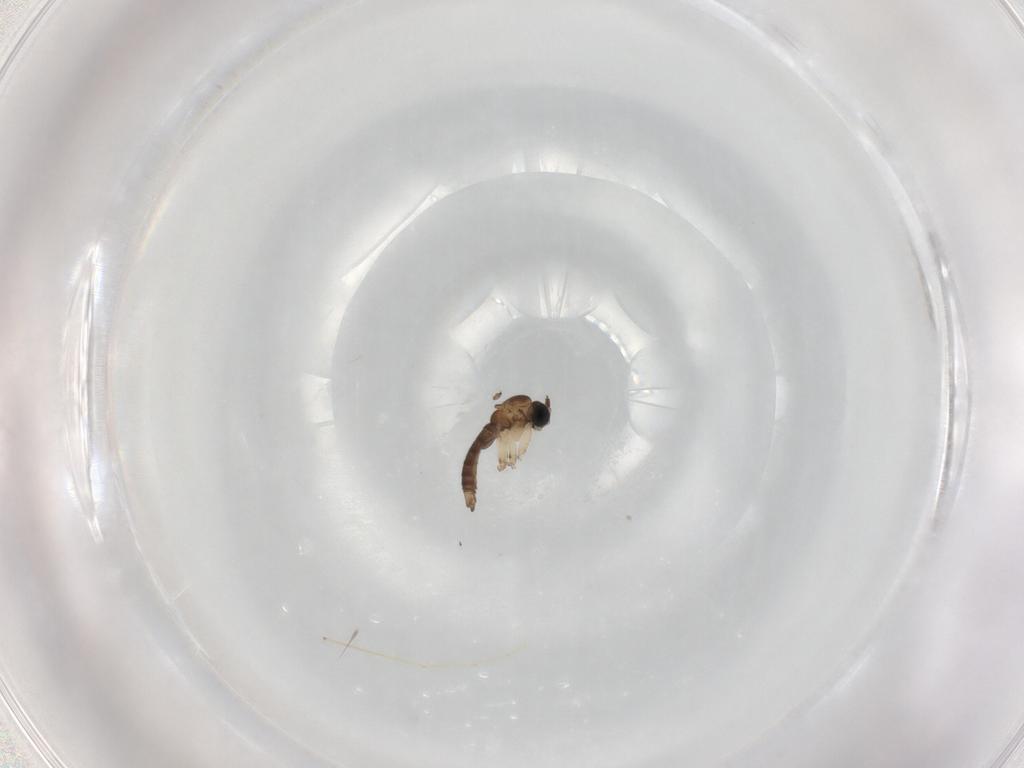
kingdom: Animalia
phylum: Arthropoda
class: Insecta
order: Diptera
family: Chironomidae
